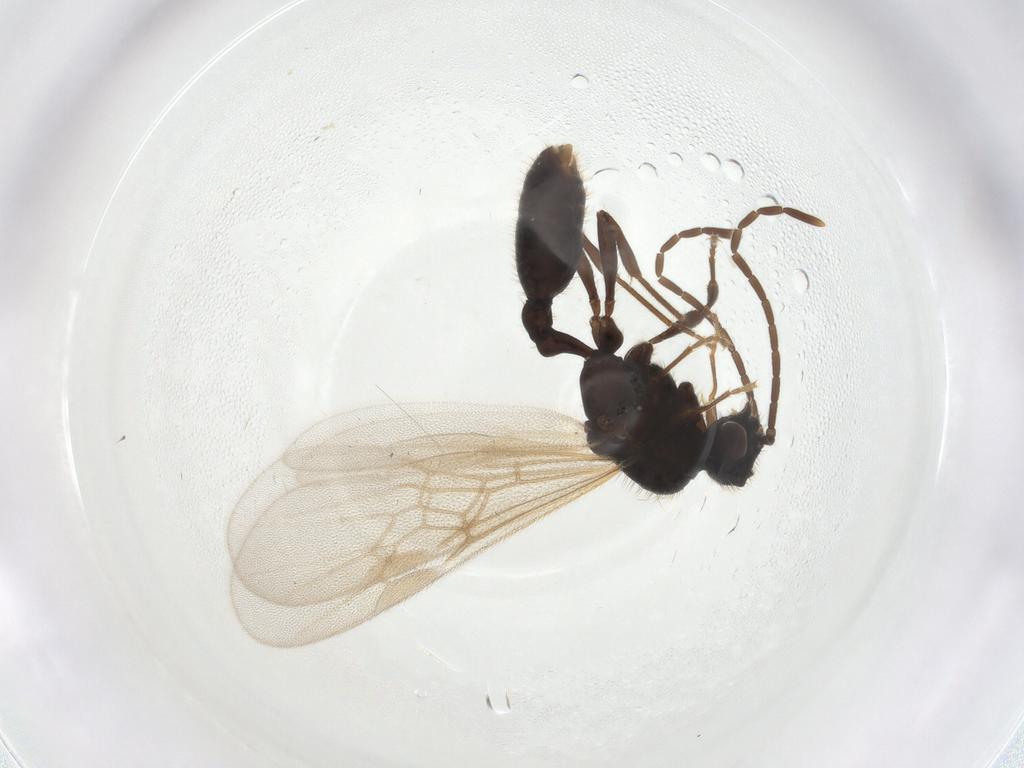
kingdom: Animalia
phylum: Arthropoda
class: Insecta
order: Hymenoptera
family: Formicidae
